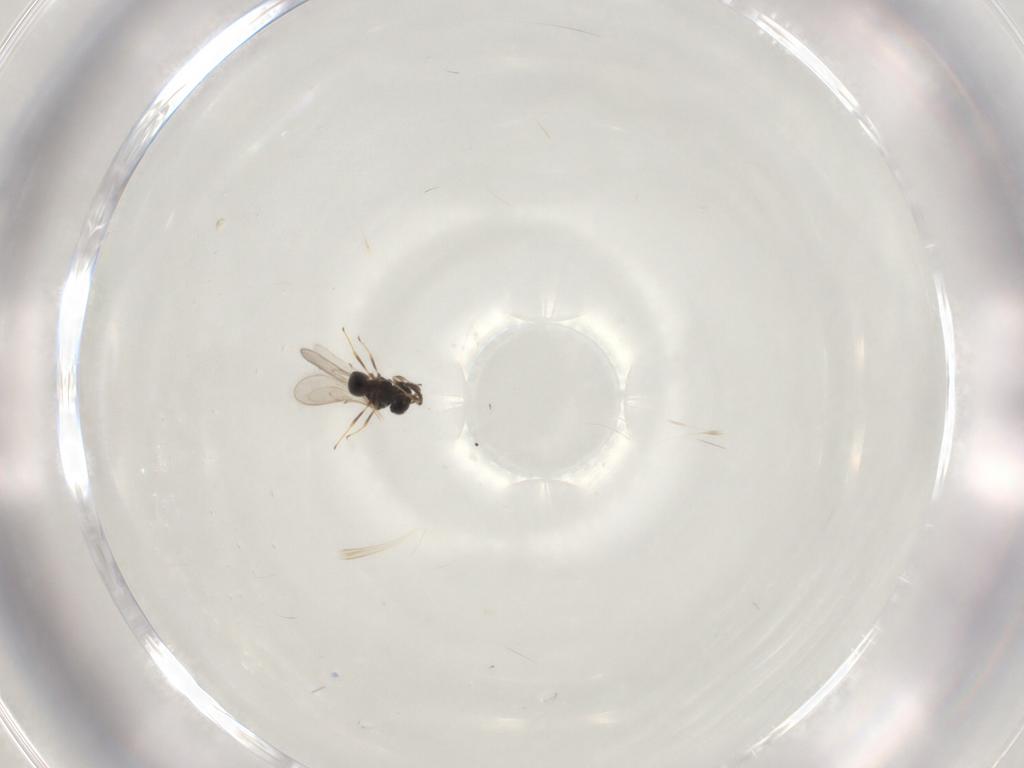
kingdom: Animalia
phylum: Arthropoda
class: Insecta
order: Hymenoptera
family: Scelionidae
